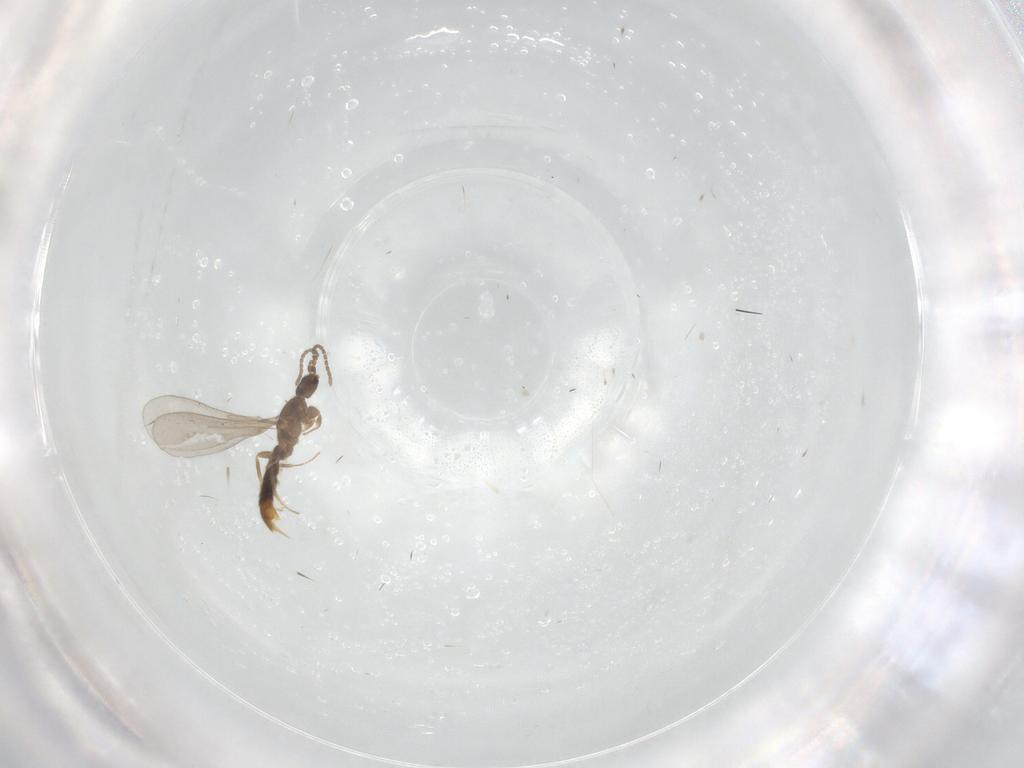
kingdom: Animalia
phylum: Arthropoda
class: Insecta
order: Hymenoptera
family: Formicidae
